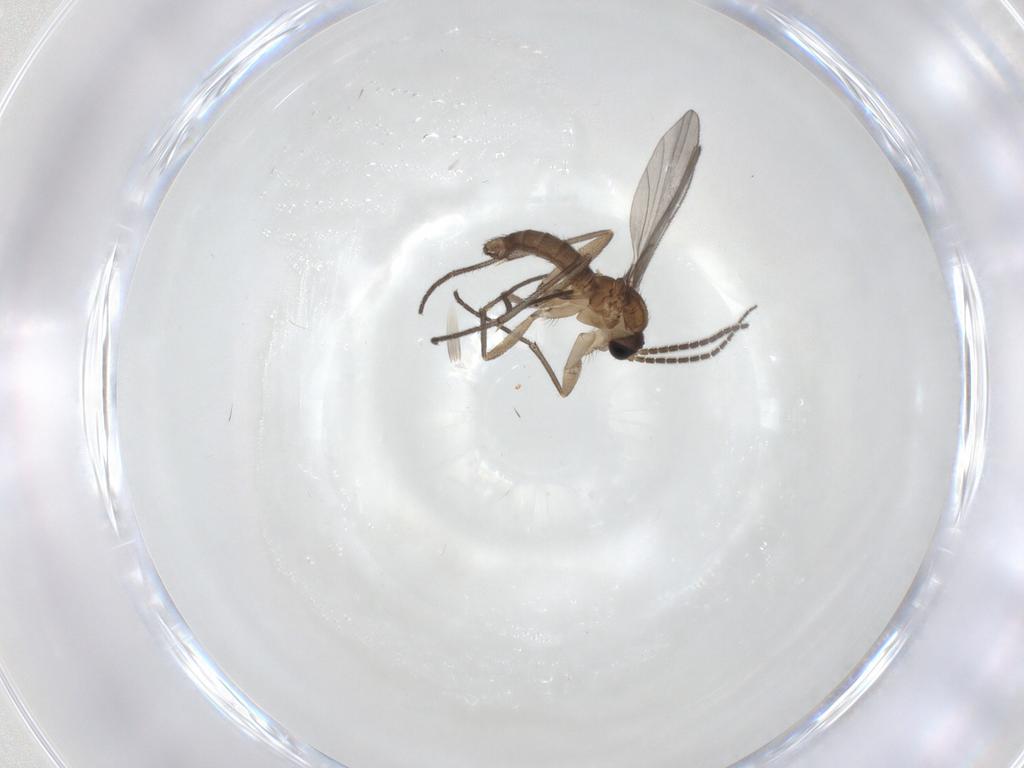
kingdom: Animalia
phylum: Arthropoda
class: Insecta
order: Diptera
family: Sciaridae
